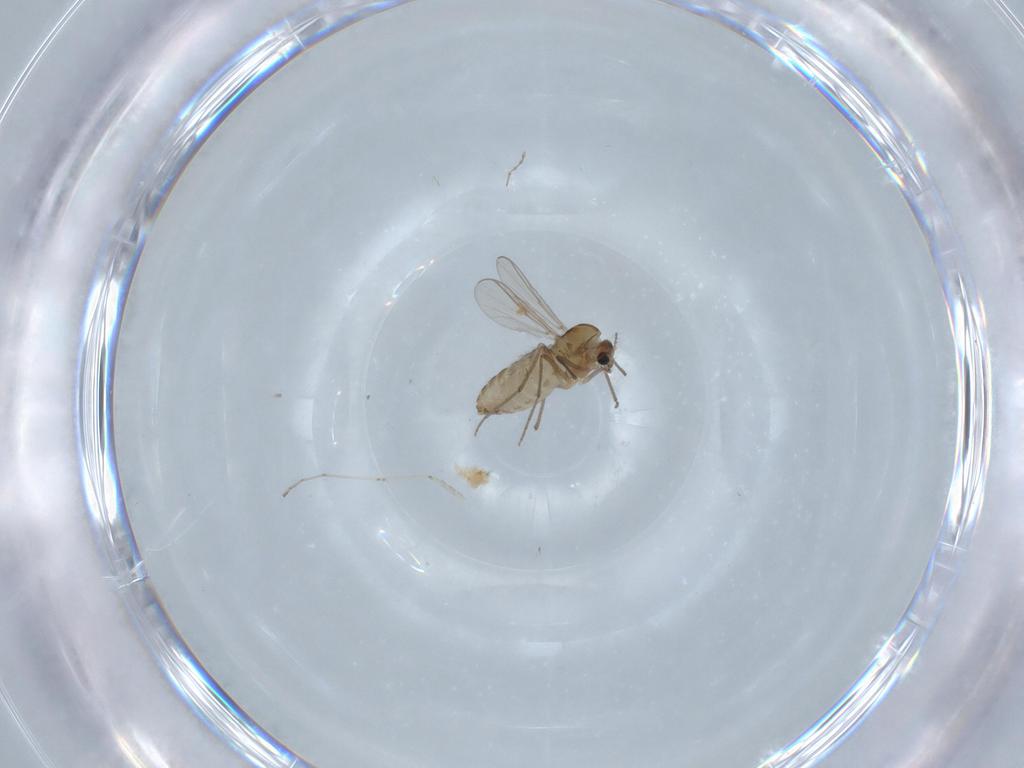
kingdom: Animalia
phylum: Arthropoda
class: Insecta
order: Diptera
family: Chironomidae
